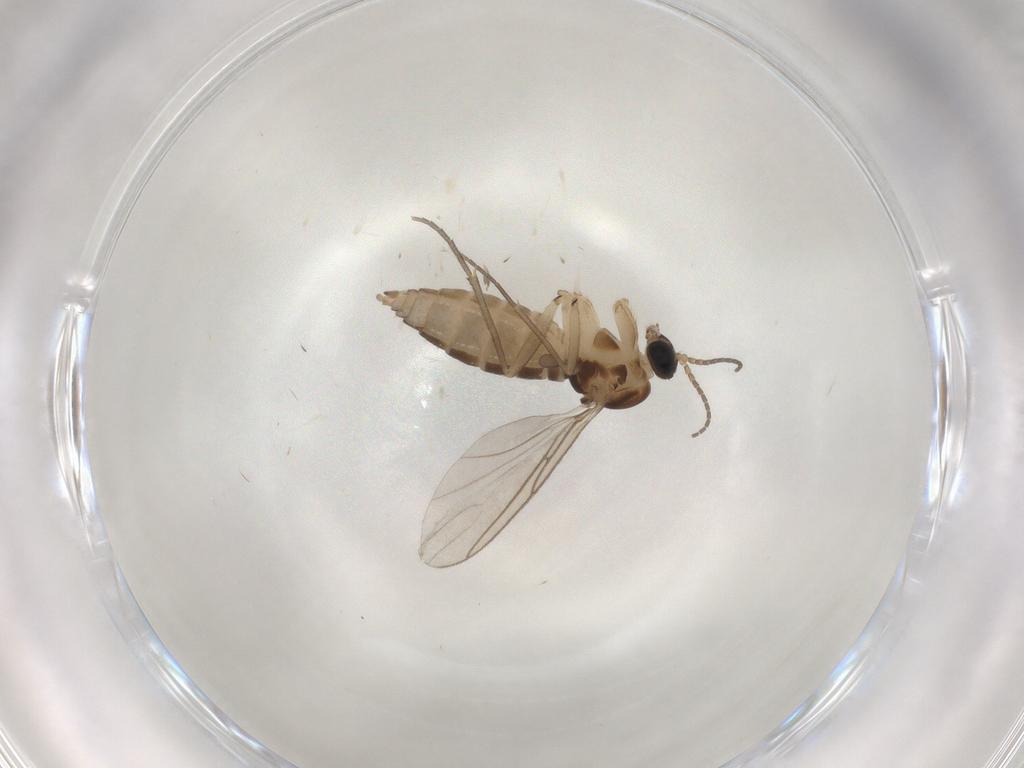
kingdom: Animalia
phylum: Arthropoda
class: Insecta
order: Diptera
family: Sciaridae
